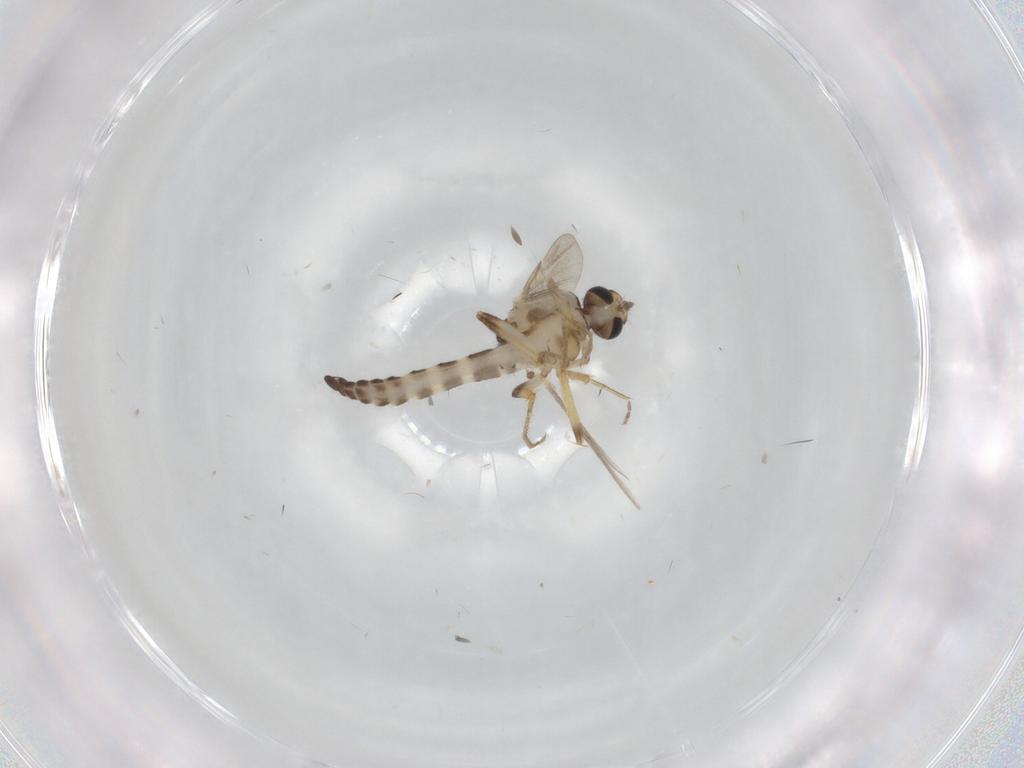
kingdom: Animalia
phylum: Arthropoda
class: Insecta
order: Diptera
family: Ceratopogonidae
